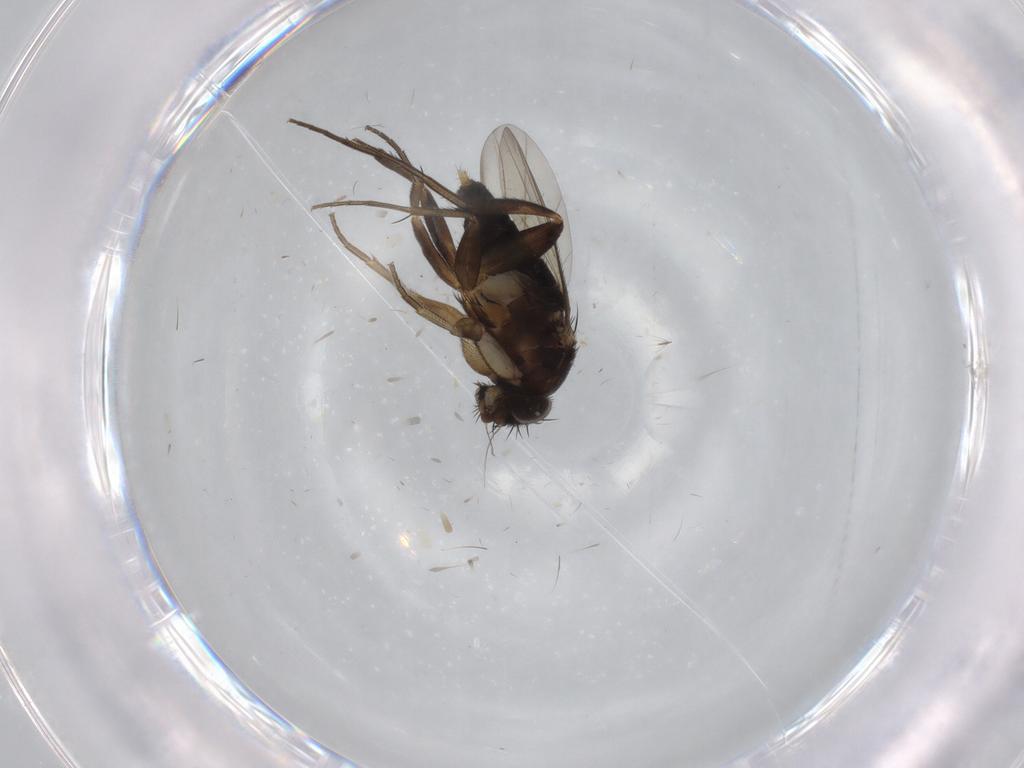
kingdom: Animalia
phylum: Arthropoda
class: Insecta
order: Diptera
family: Phoridae
